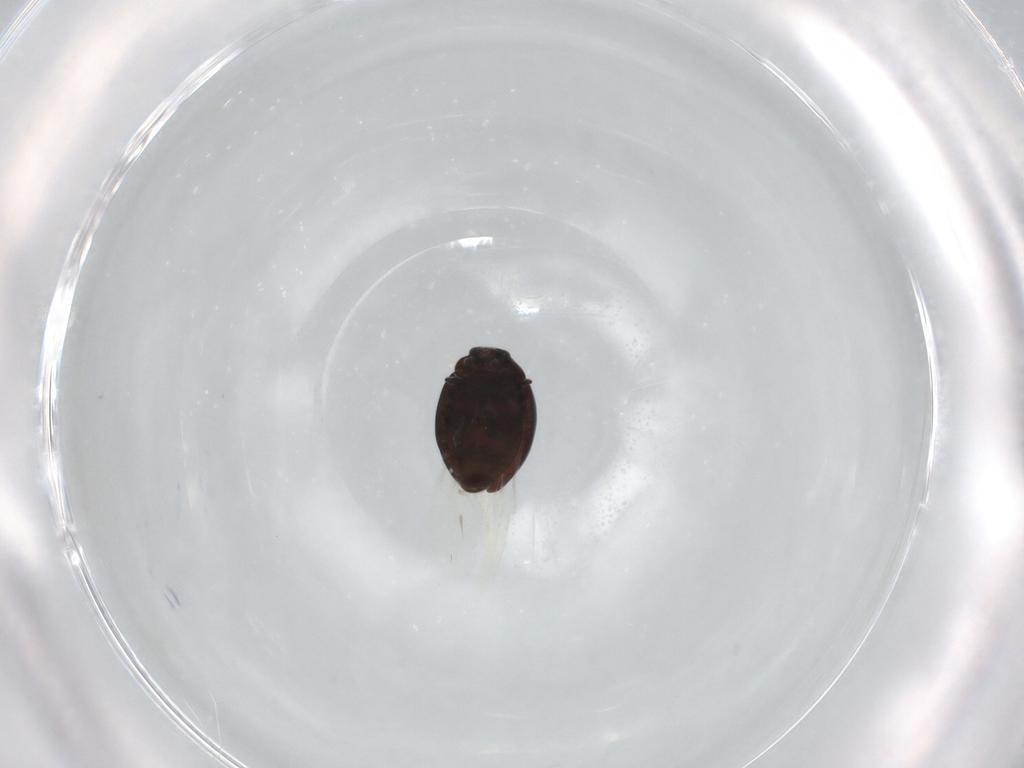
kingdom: Animalia
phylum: Arthropoda
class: Insecta
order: Coleoptera
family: Coccinellidae
